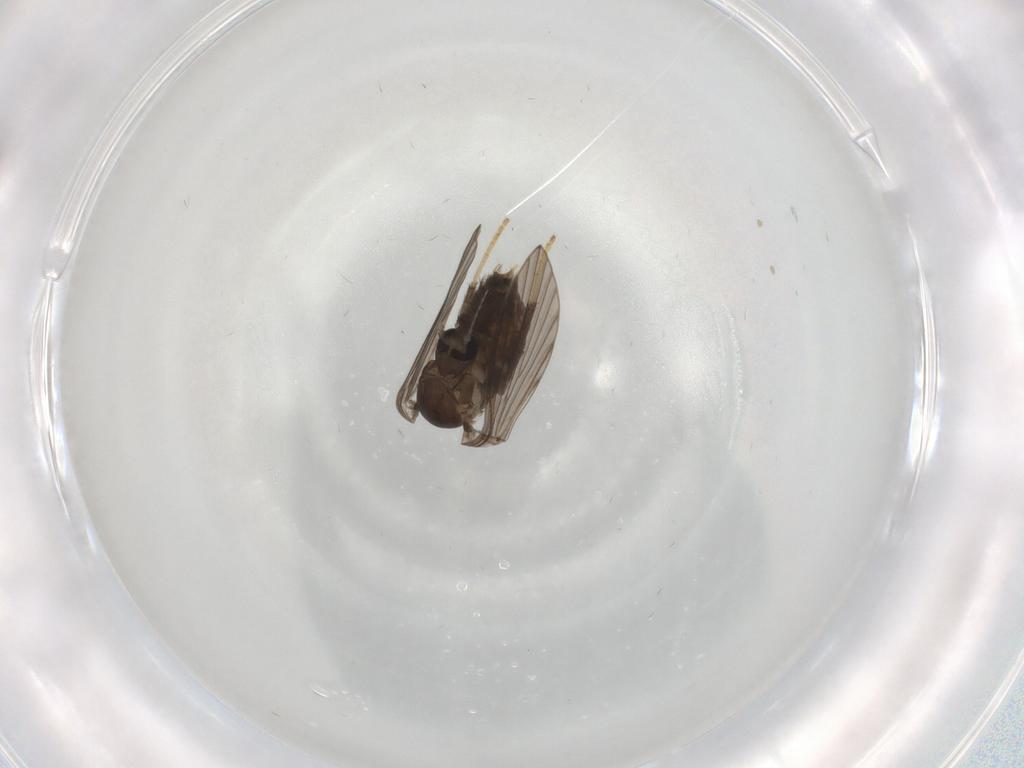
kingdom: Animalia
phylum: Arthropoda
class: Insecta
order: Diptera
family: Psychodidae
